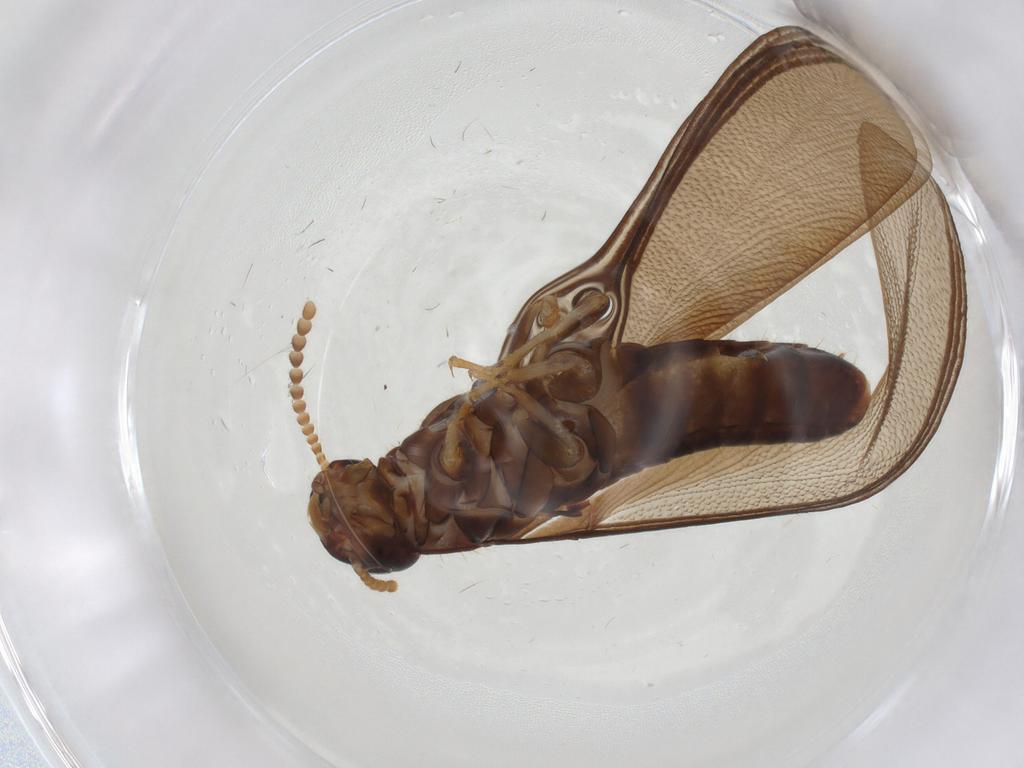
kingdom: Animalia
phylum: Arthropoda
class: Insecta
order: Blattodea
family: Kalotermitidae
